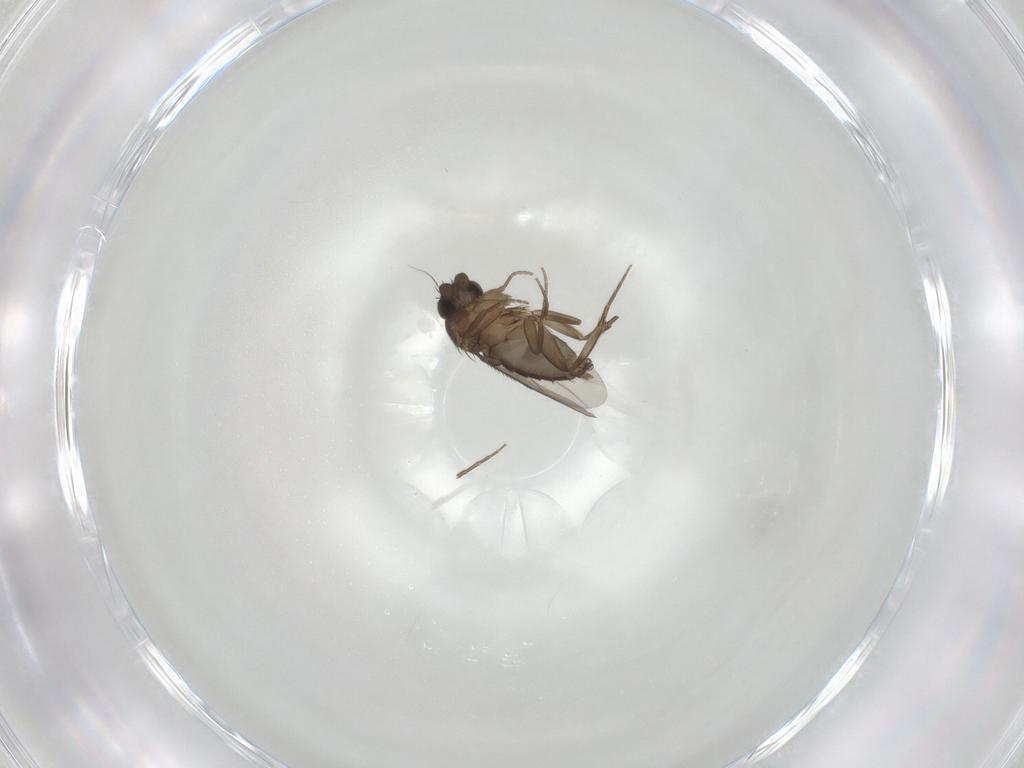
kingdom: Animalia
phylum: Arthropoda
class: Insecta
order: Diptera
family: Phoridae
